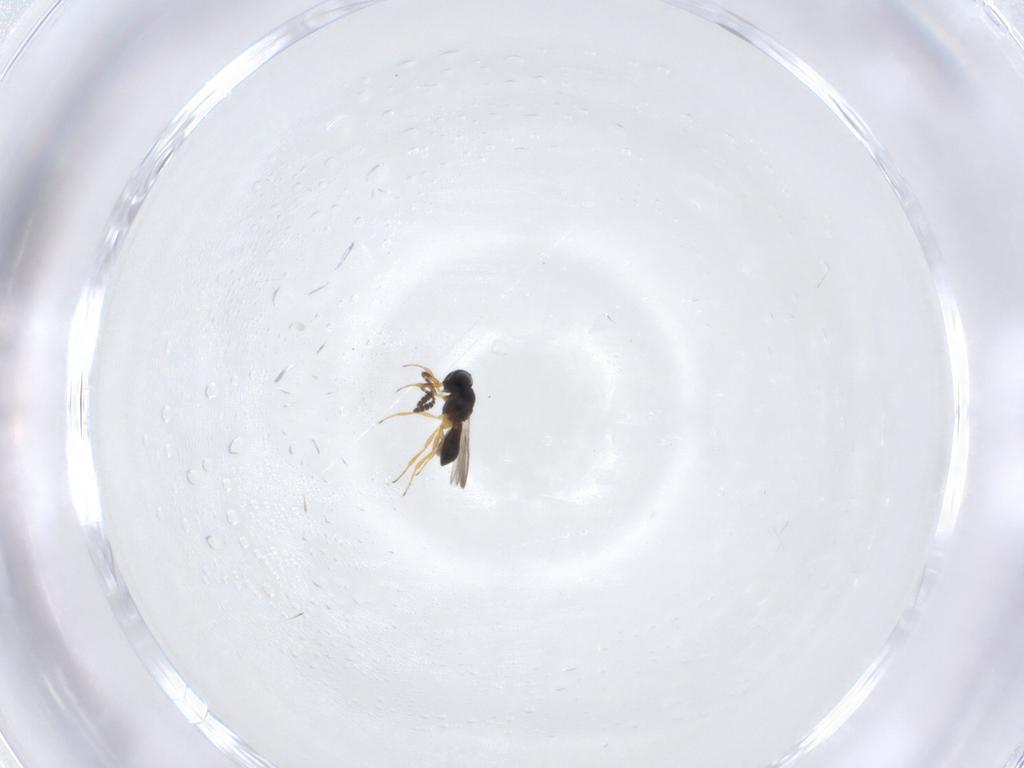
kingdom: Animalia
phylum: Arthropoda
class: Insecta
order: Hymenoptera
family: Scelionidae
